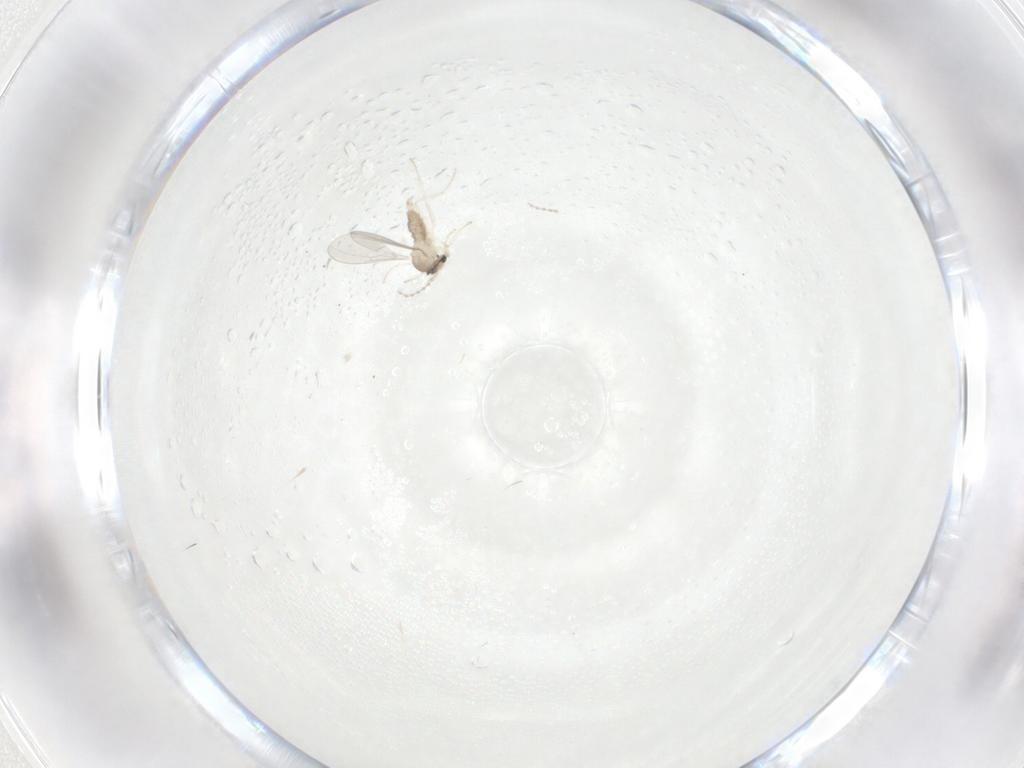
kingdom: Animalia
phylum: Arthropoda
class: Insecta
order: Diptera
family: Cecidomyiidae
